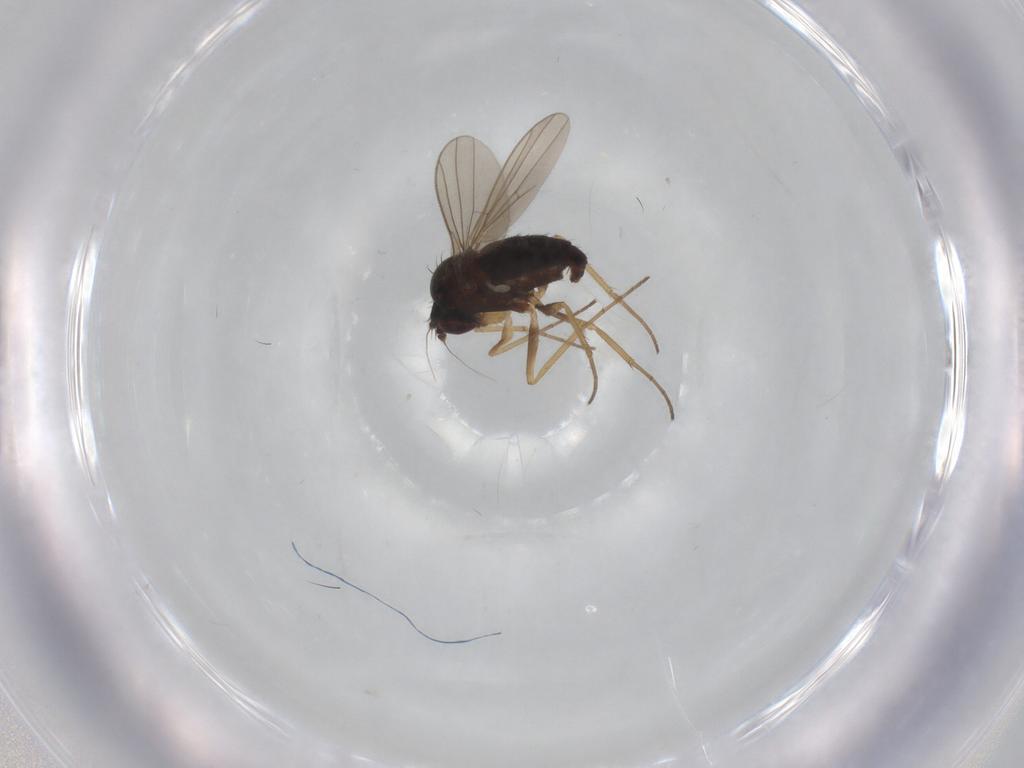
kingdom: Animalia
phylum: Arthropoda
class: Insecta
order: Diptera
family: Dolichopodidae
